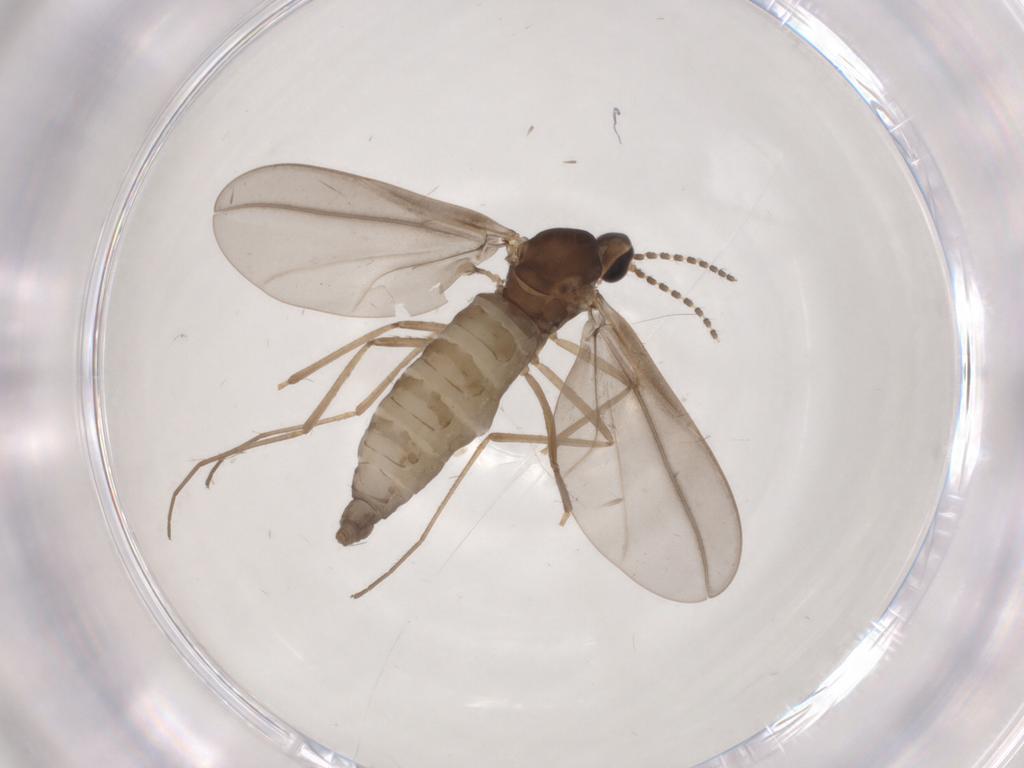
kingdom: Animalia
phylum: Arthropoda
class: Insecta
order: Diptera
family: Cecidomyiidae
